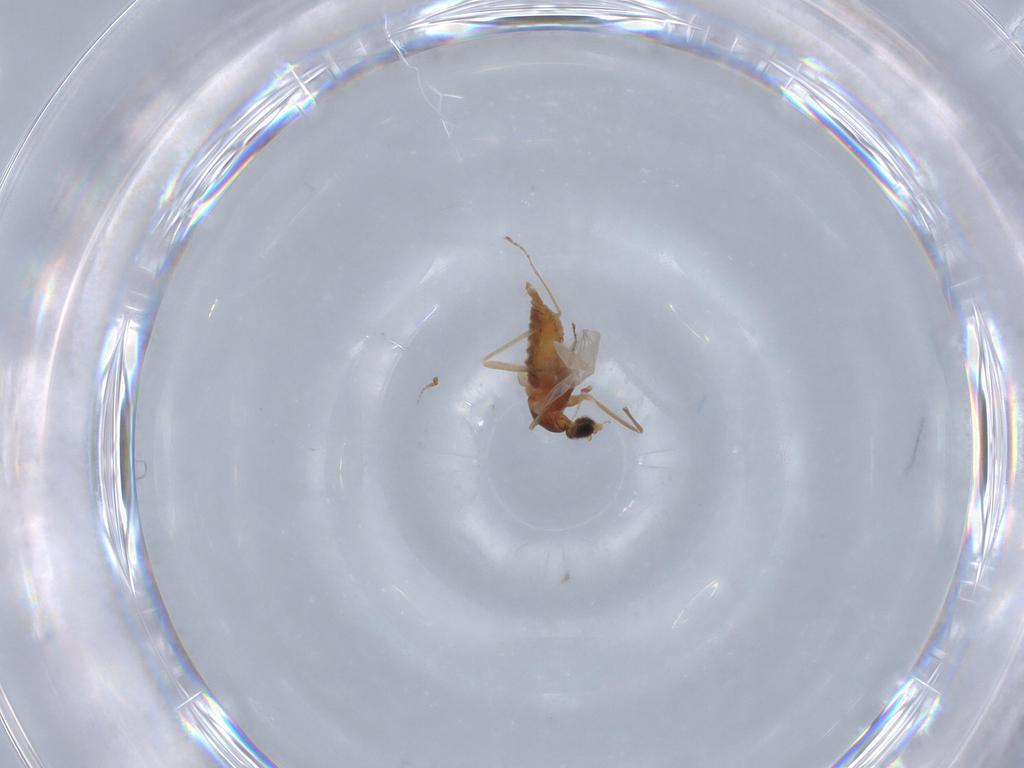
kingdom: Animalia
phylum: Arthropoda
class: Insecta
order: Diptera
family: Cecidomyiidae
